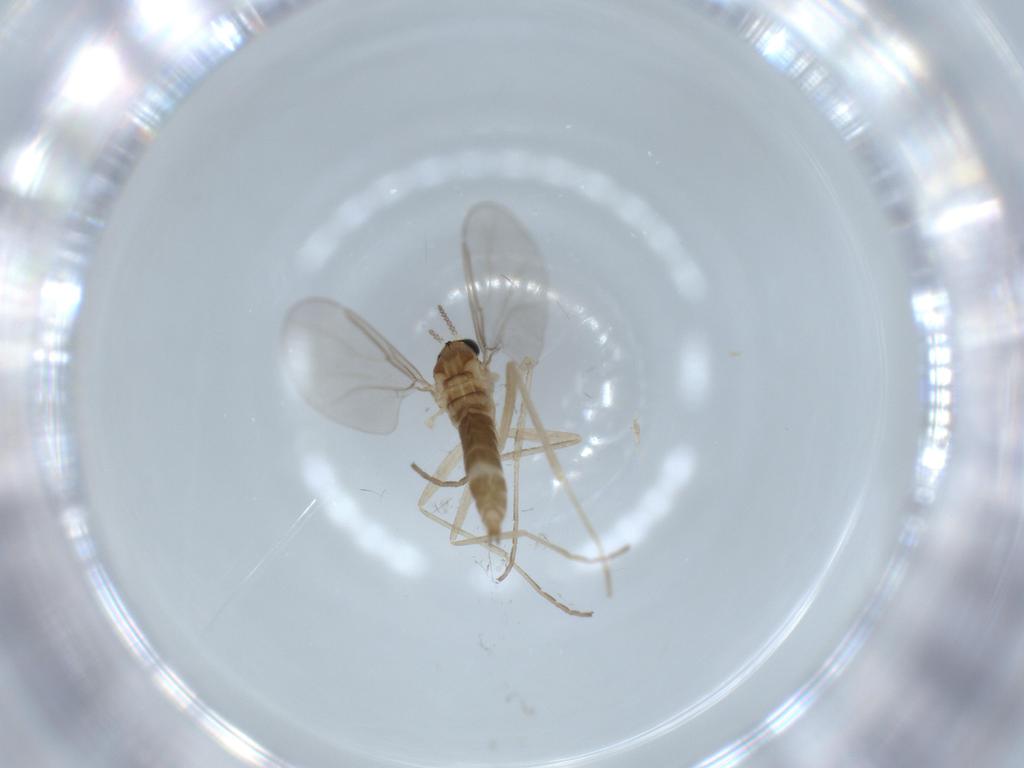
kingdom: Animalia
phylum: Arthropoda
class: Insecta
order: Diptera
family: Cecidomyiidae
